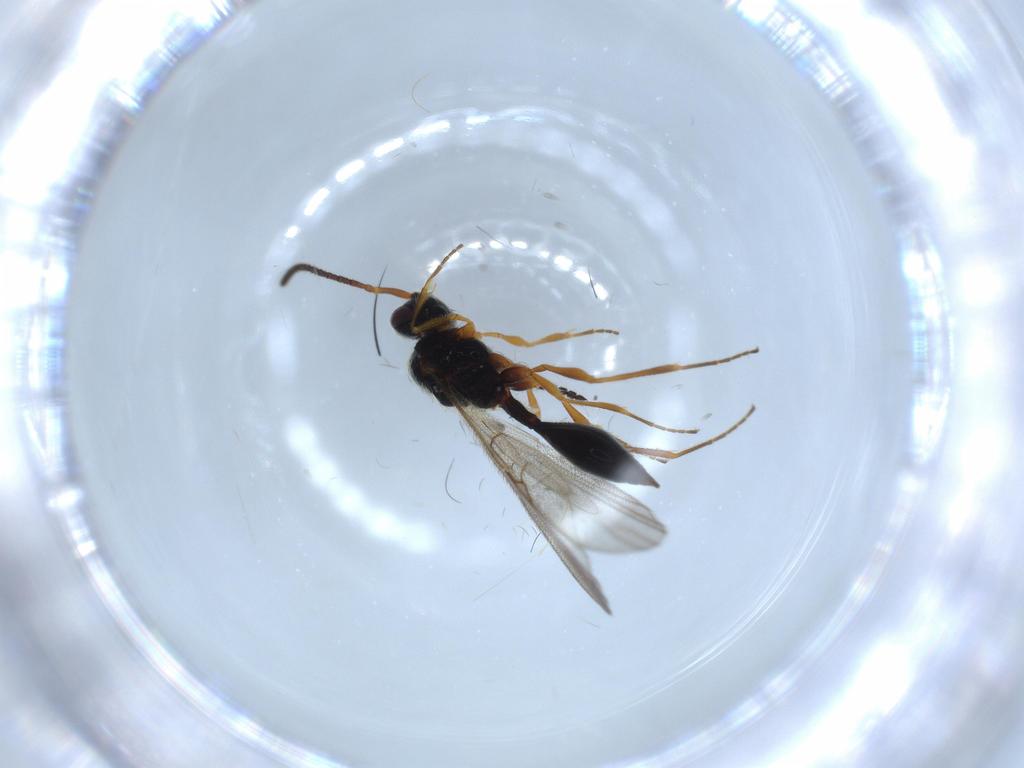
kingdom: Animalia
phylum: Arthropoda
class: Insecta
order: Hymenoptera
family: Diapriidae
